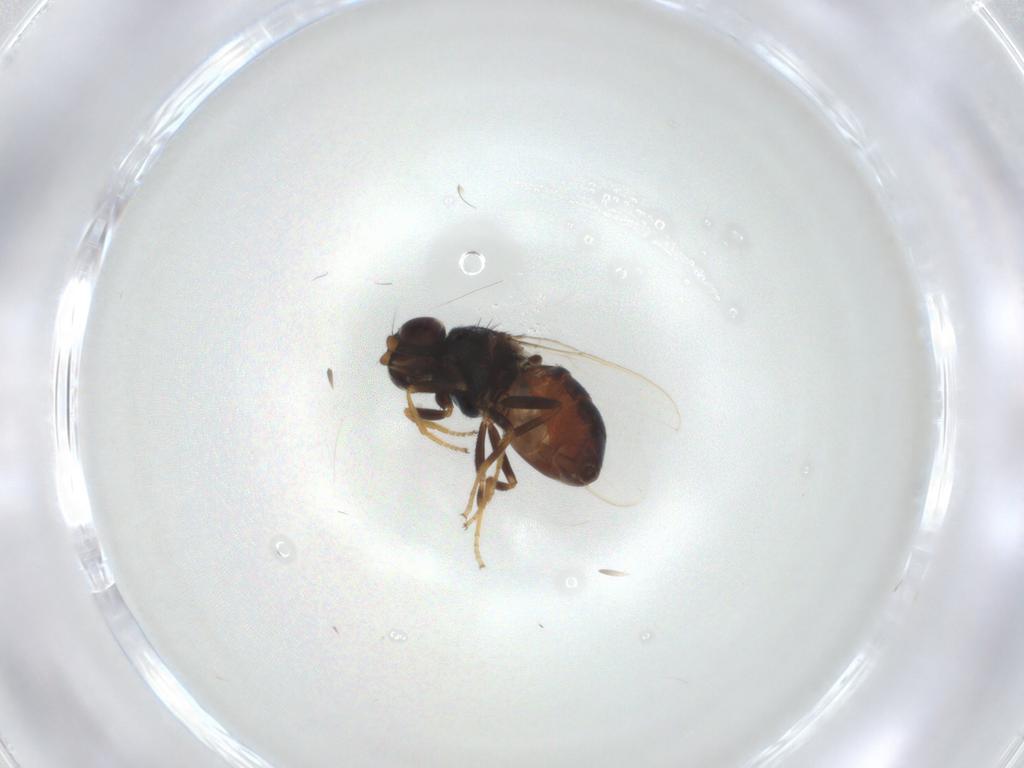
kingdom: Animalia
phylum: Arthropoda
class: Insecta
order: Diptera
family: Chloropidae
